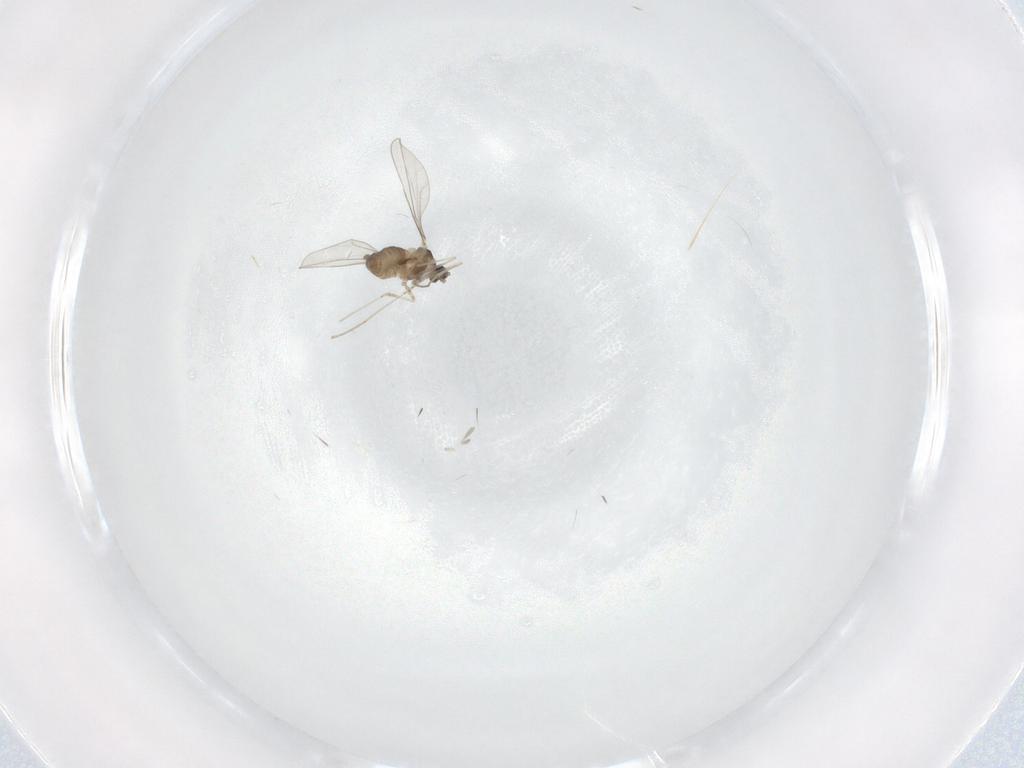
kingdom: Animalia
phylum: Arthropoda
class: Insecta
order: Diptera
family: Cecidomyiidae
